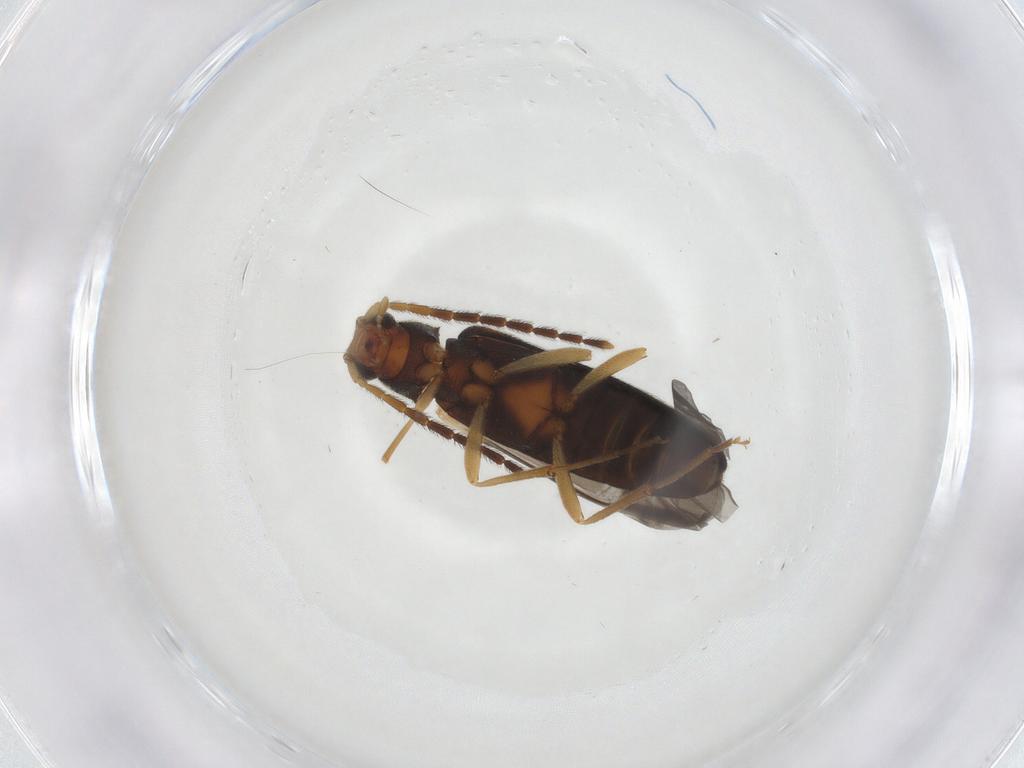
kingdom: Animalia
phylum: Arthropoda
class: Insecta
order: Coleoptera
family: Melandryidae
